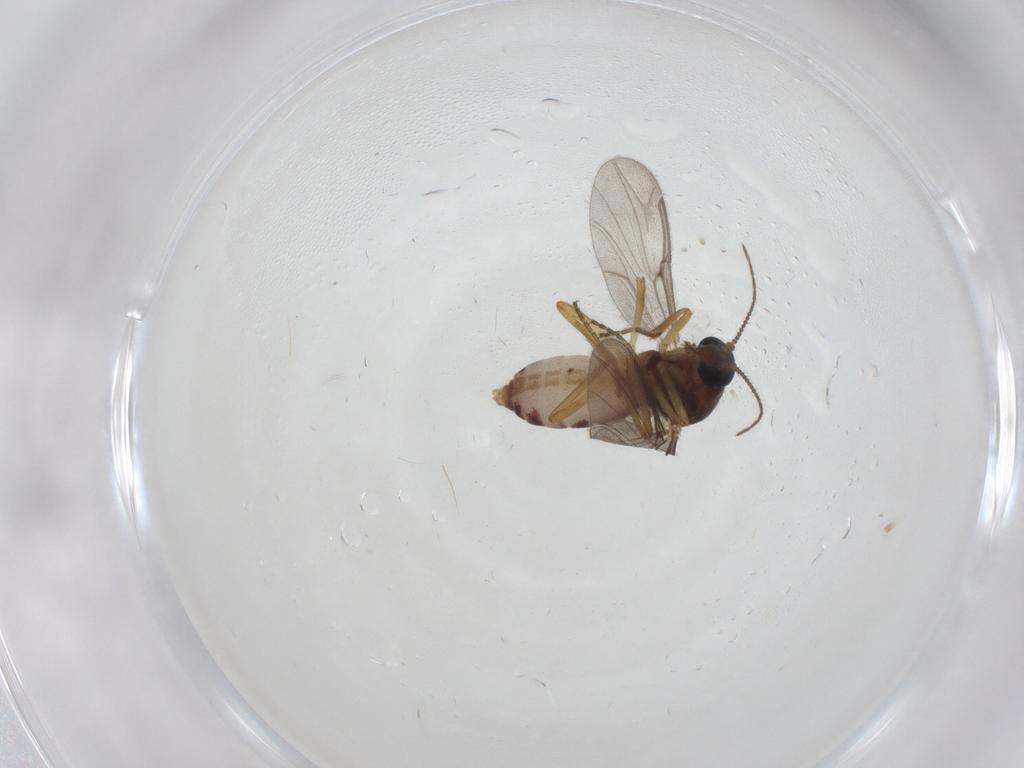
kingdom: Animalia
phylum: Arthropoda
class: Insecta
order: Diptera
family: Ceratopogonidae
